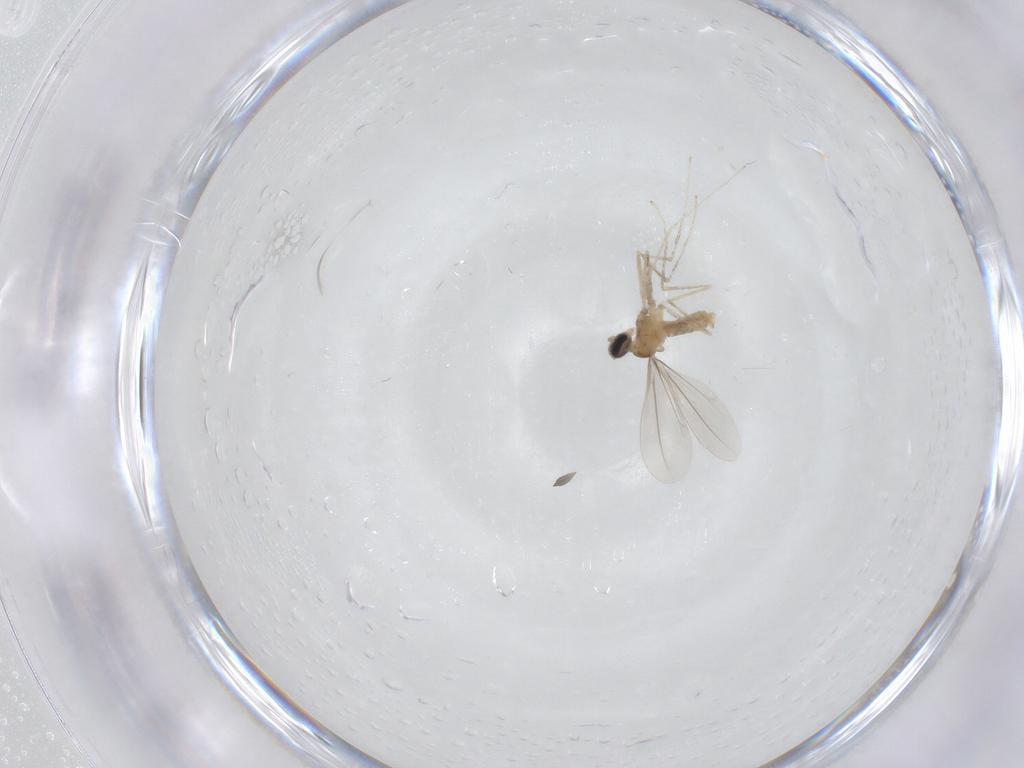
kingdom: Animalia
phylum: Arthropoda
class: Insecta
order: Diptera
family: Cecidomyiidae
